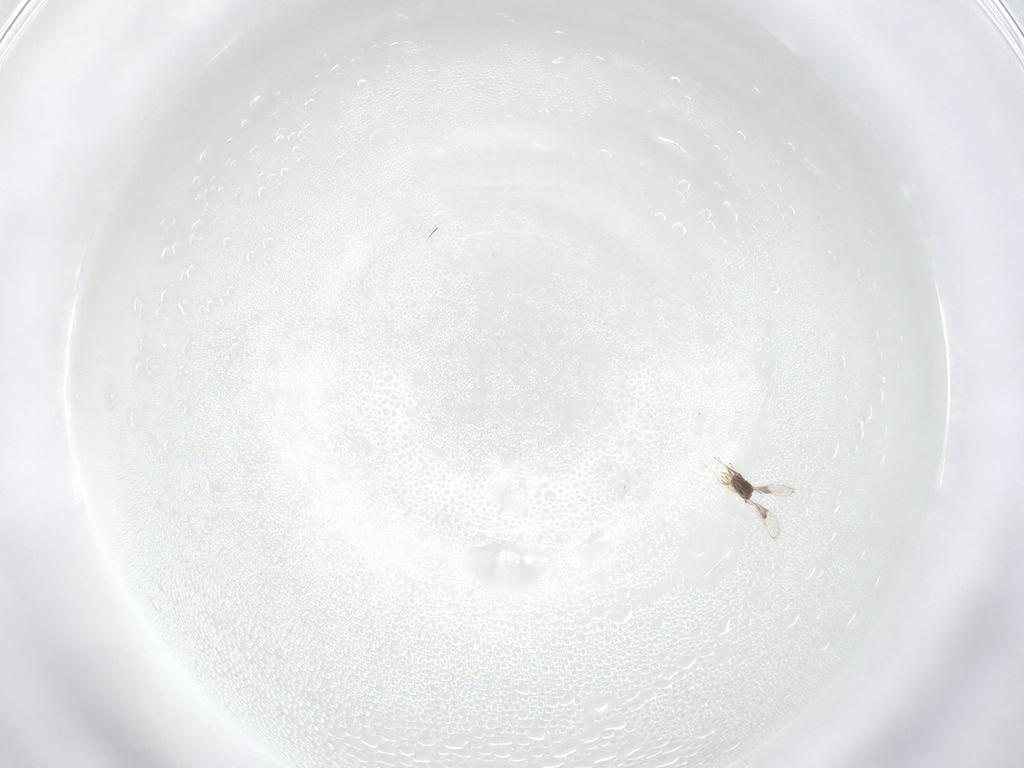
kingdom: Animalia
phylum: Arthropoda
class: Insecta
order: Hymenoptera
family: Trichogrammatidae
